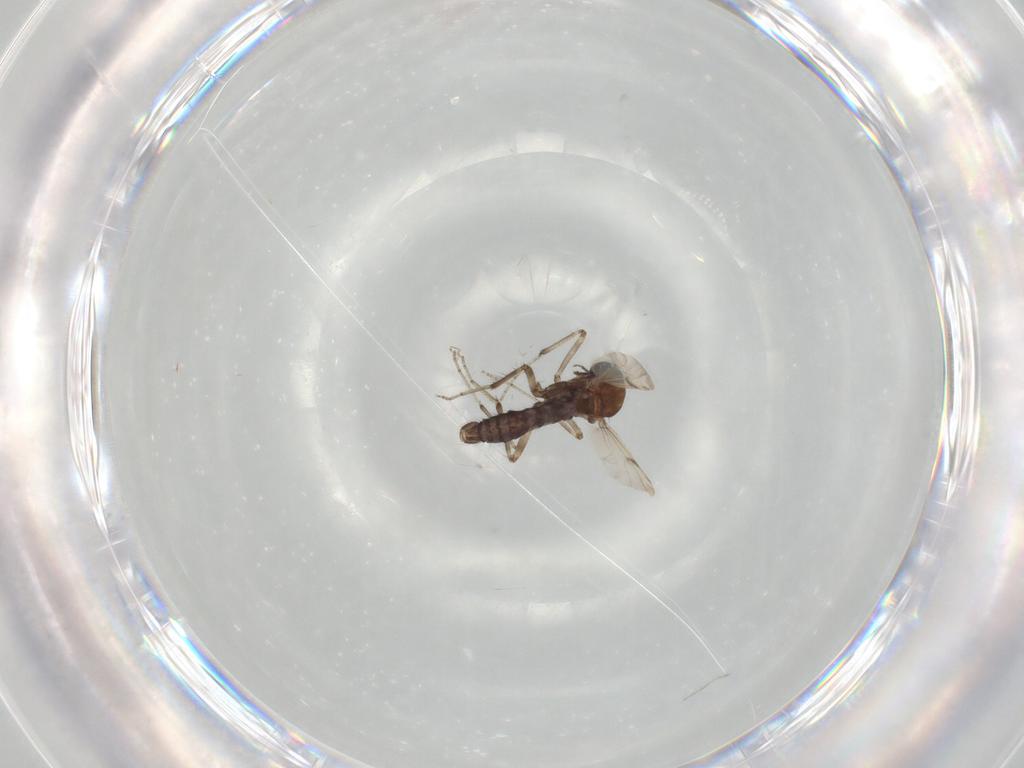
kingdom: Animalia
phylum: Arthropoda
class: Insecta
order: Diptera
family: Ceratopogonidae
